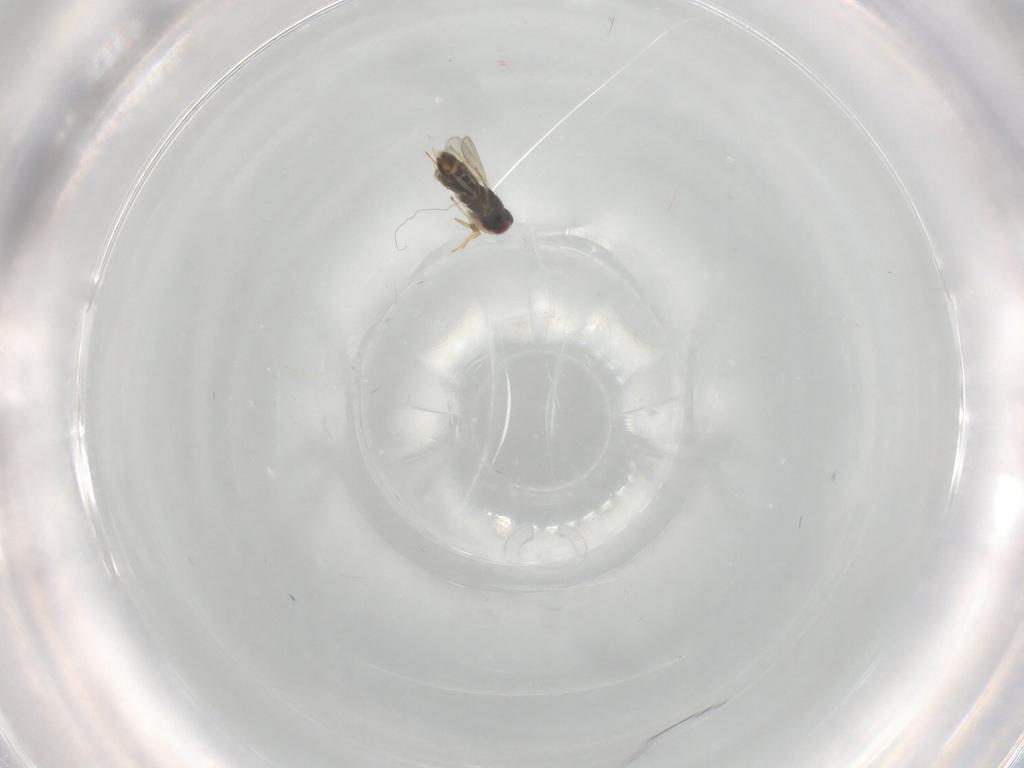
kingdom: Animalia
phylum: Arthropoda
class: Insecta
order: Hymenoptera
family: Aphelinidae
